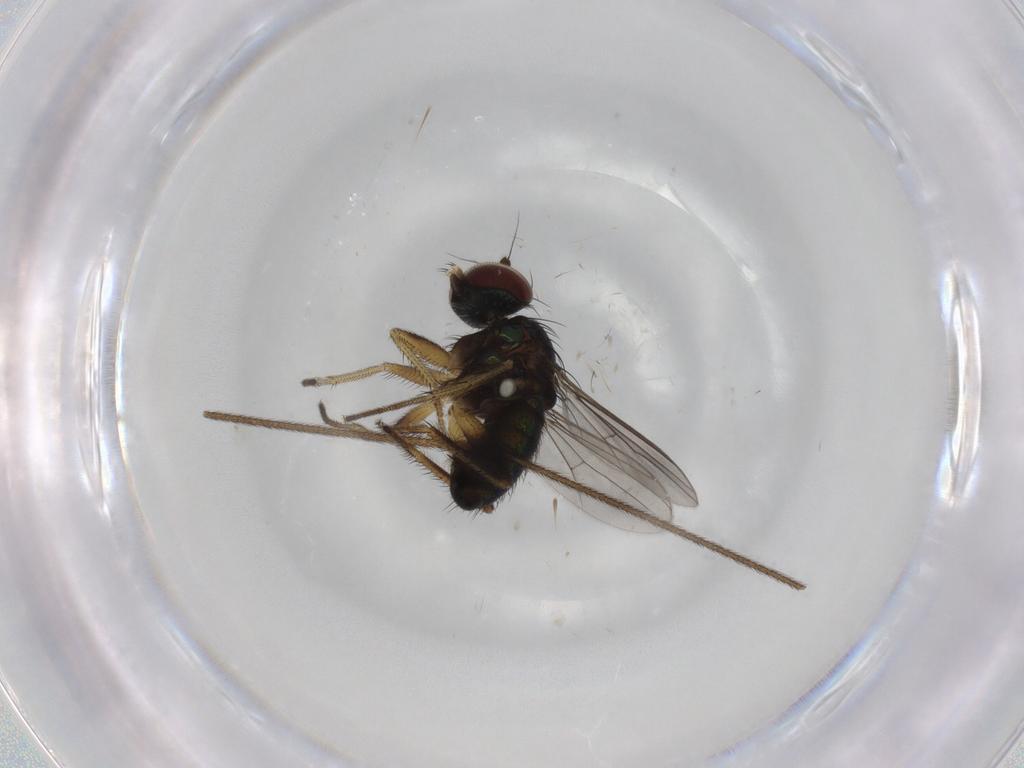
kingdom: Animalia
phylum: Arthropoda
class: Insecta
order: Diptera
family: Dolichopodidae
